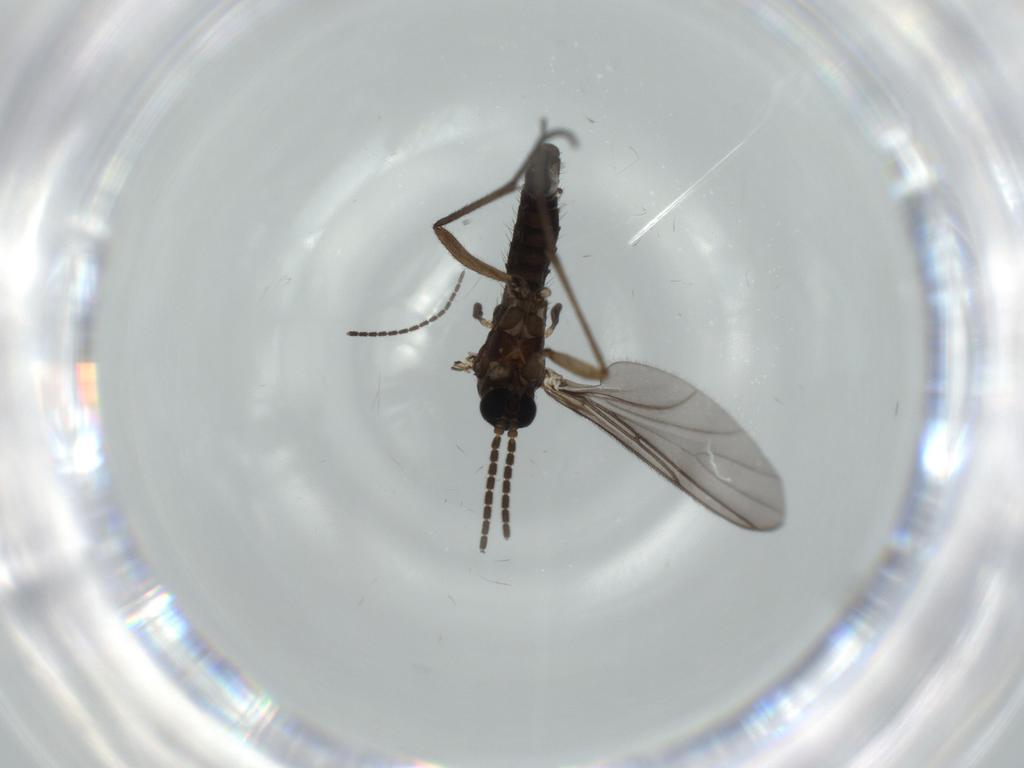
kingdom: Animalia
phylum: Arthropoda
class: Insecta
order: Diptera
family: Sciaridae
